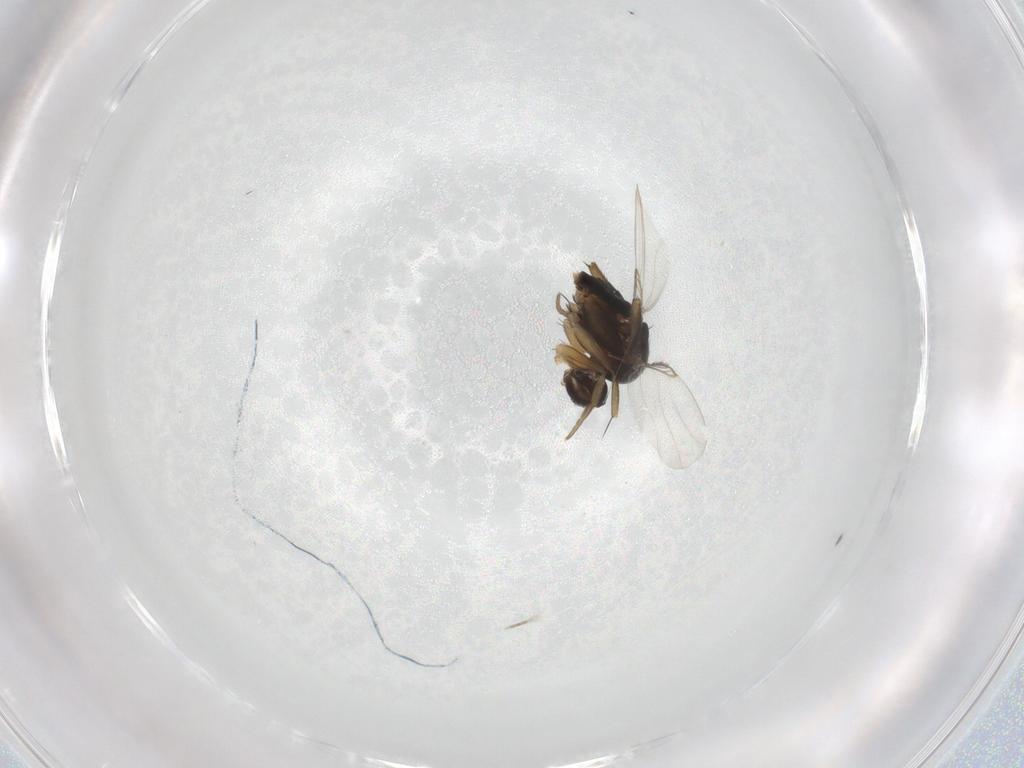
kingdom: Animalia
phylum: Arthropoda
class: Insecta
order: Diptera
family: Phoridae
